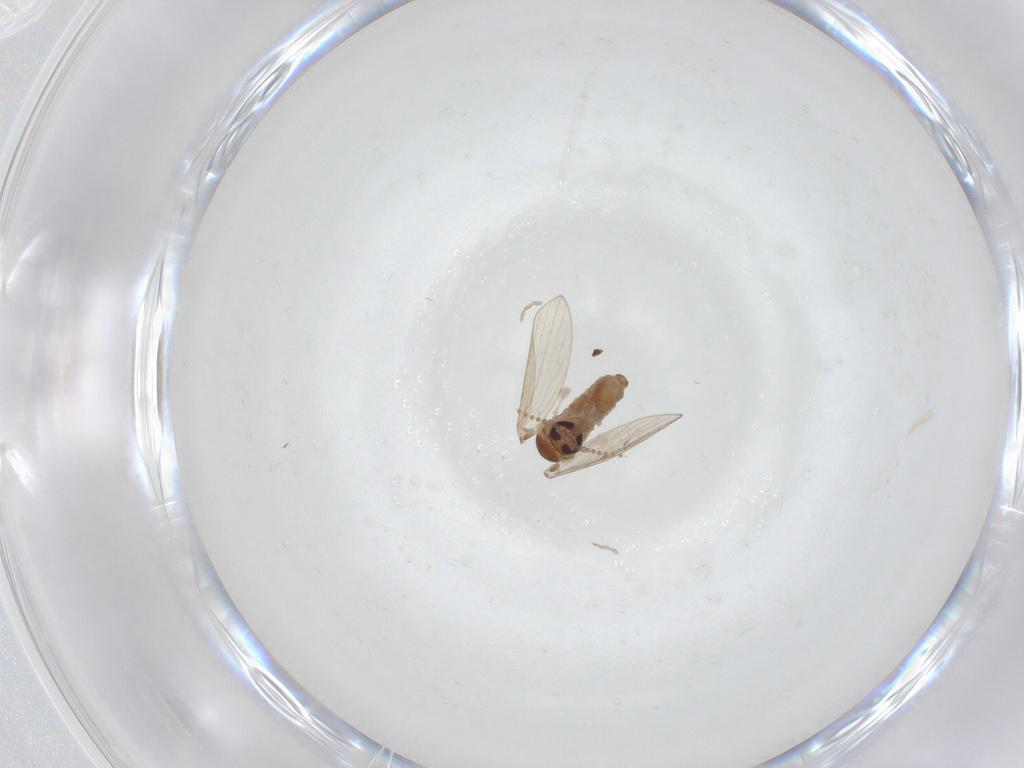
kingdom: Animalia
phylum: Arthropoda
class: Insecta
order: Diptera
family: Psychodidae
